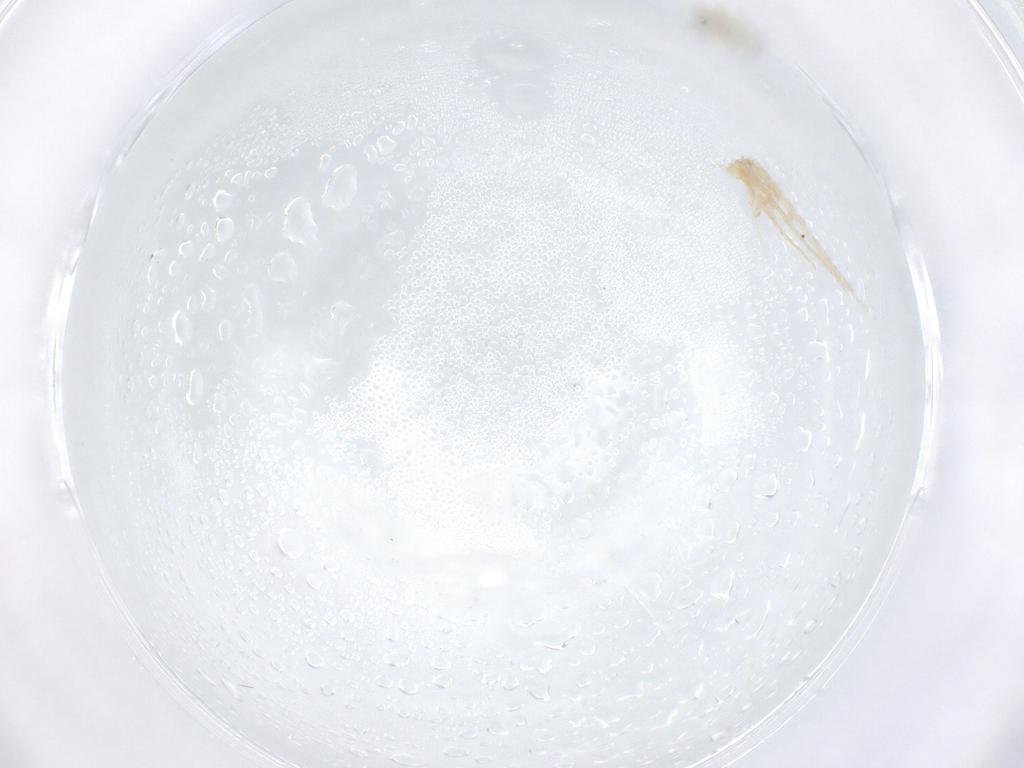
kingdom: Animalia
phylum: Arthropoda
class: Insecta
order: Hymenoptera
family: Eulophidae
